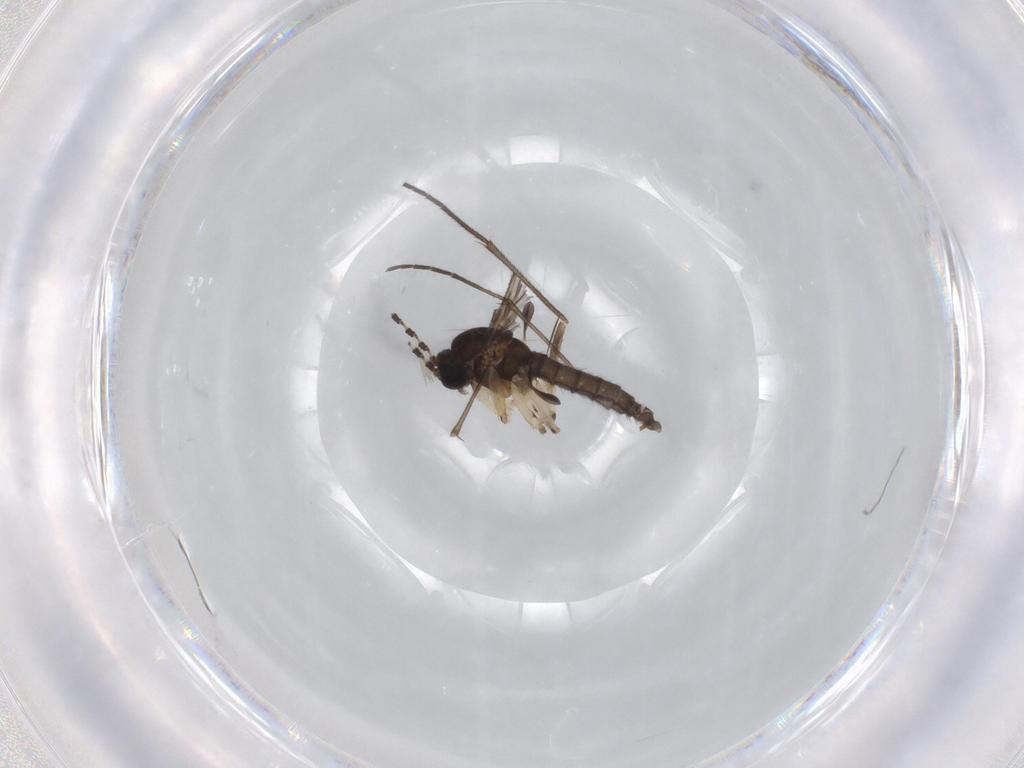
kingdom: Animalia
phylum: Arthropoda
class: Insecta
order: Diptera
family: Sciaridae
